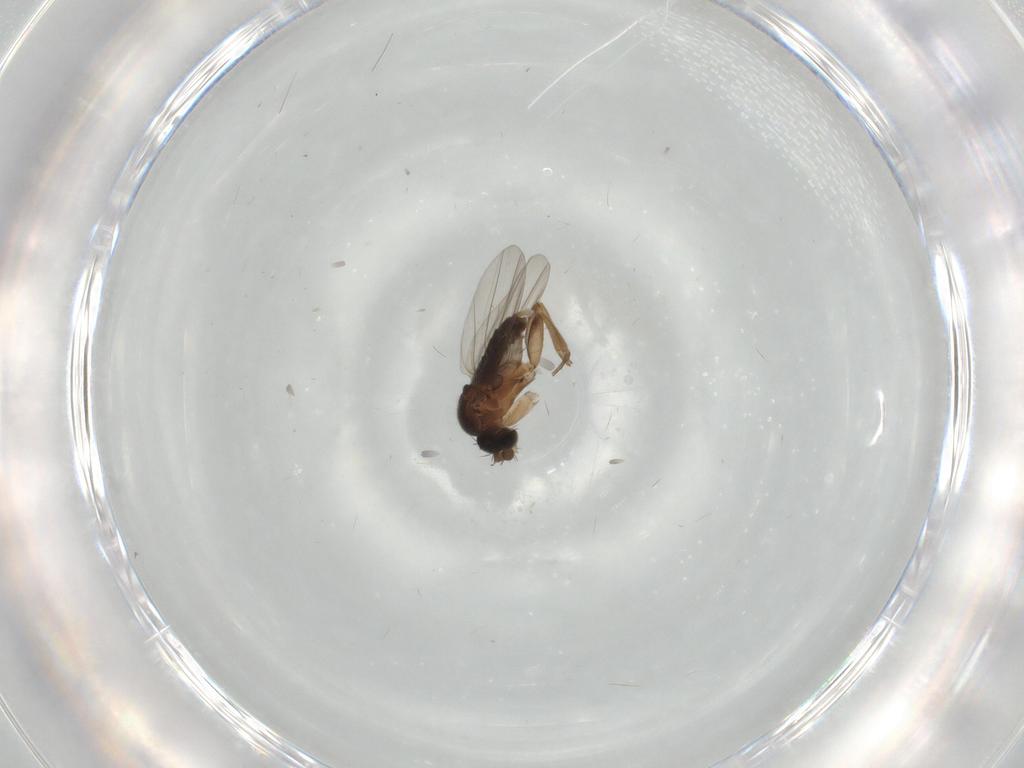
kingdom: Animalia
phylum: Arthropoda
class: Insecta
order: Diptera
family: Phoridae
